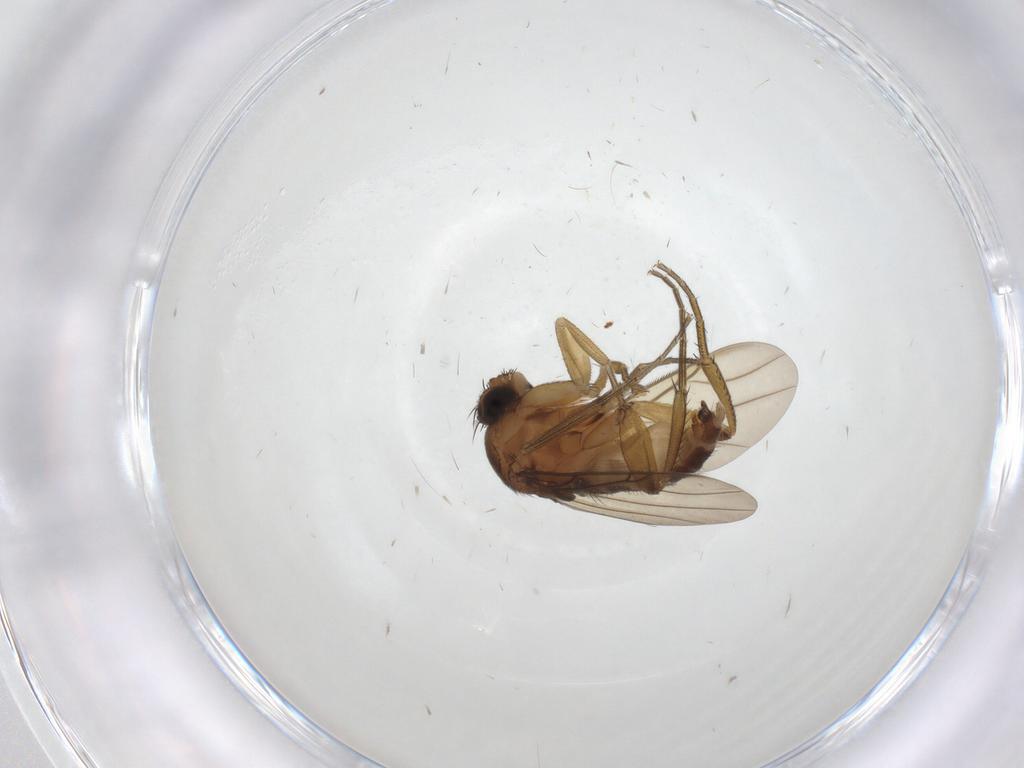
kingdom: Animalia
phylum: Arthropoda
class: Insecta
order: Diptera
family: Phoridae
